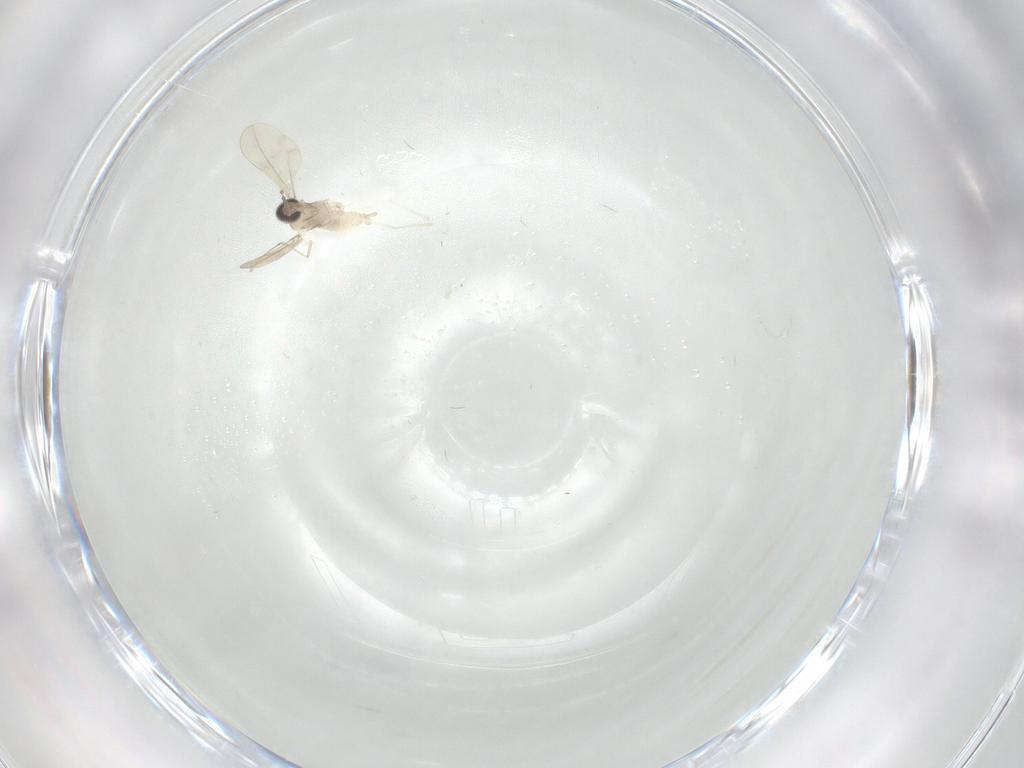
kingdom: Animalia
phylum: Arthropoda
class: Insecta
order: Diptera
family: Cecidomyiidae
